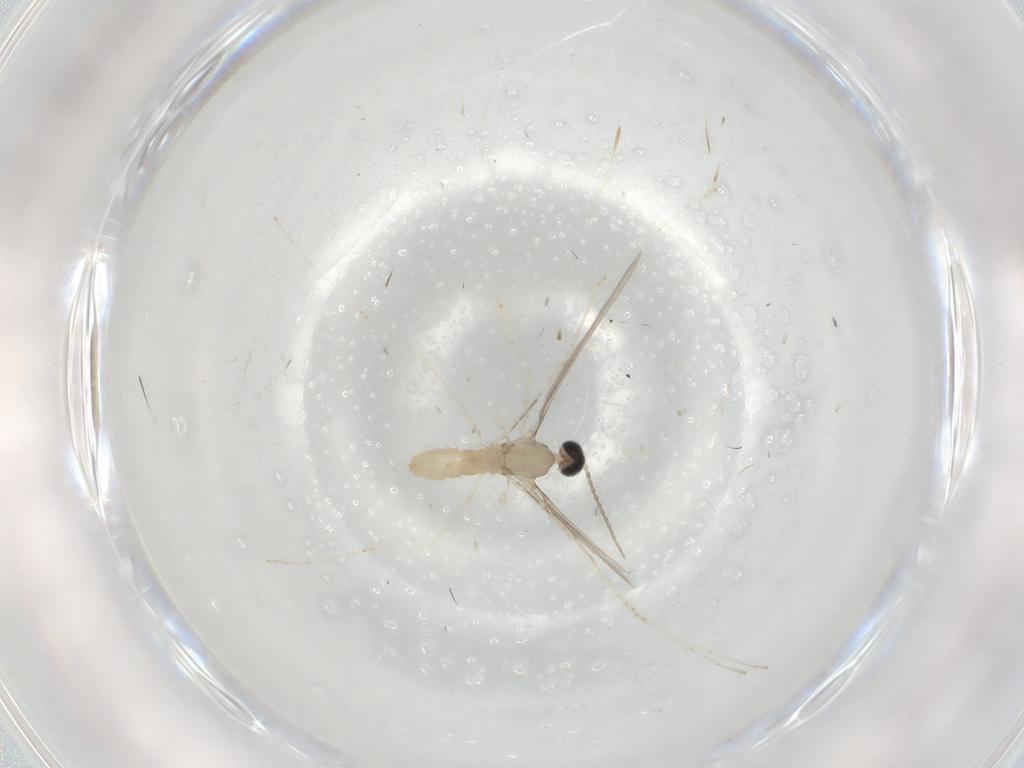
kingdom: Animalia
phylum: Arthropoda
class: Insecta
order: Diptera
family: Cecidomyiidae
